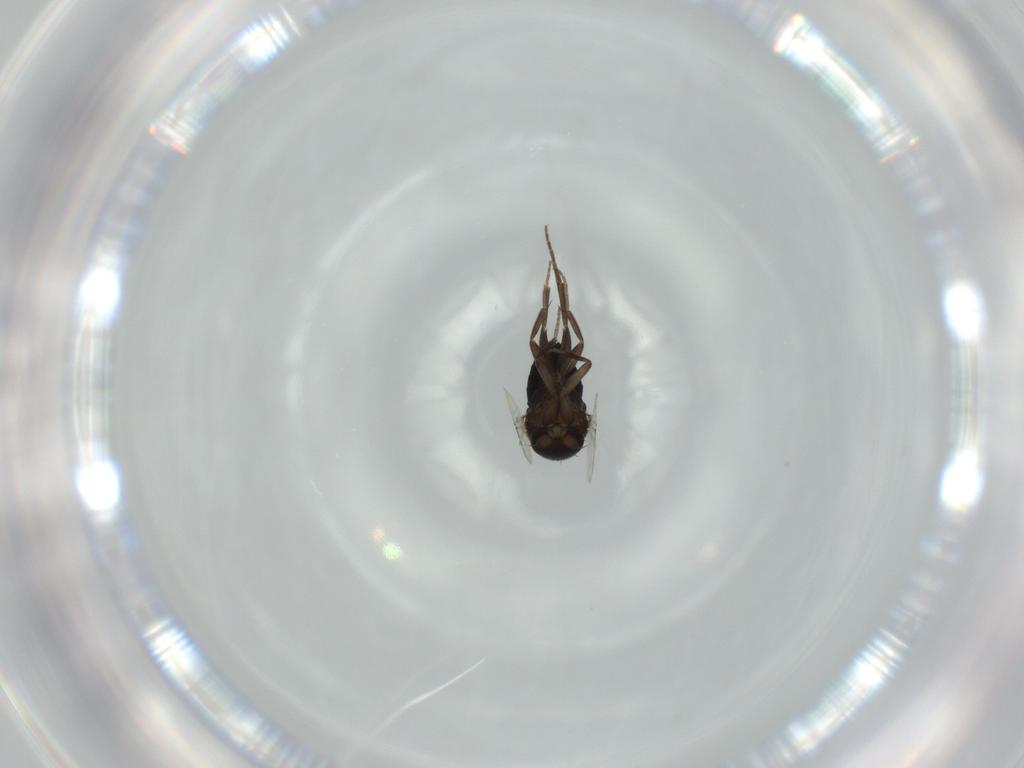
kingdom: Animalia
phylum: Arthropoda
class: Insecta
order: Diptera
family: Phoridae
